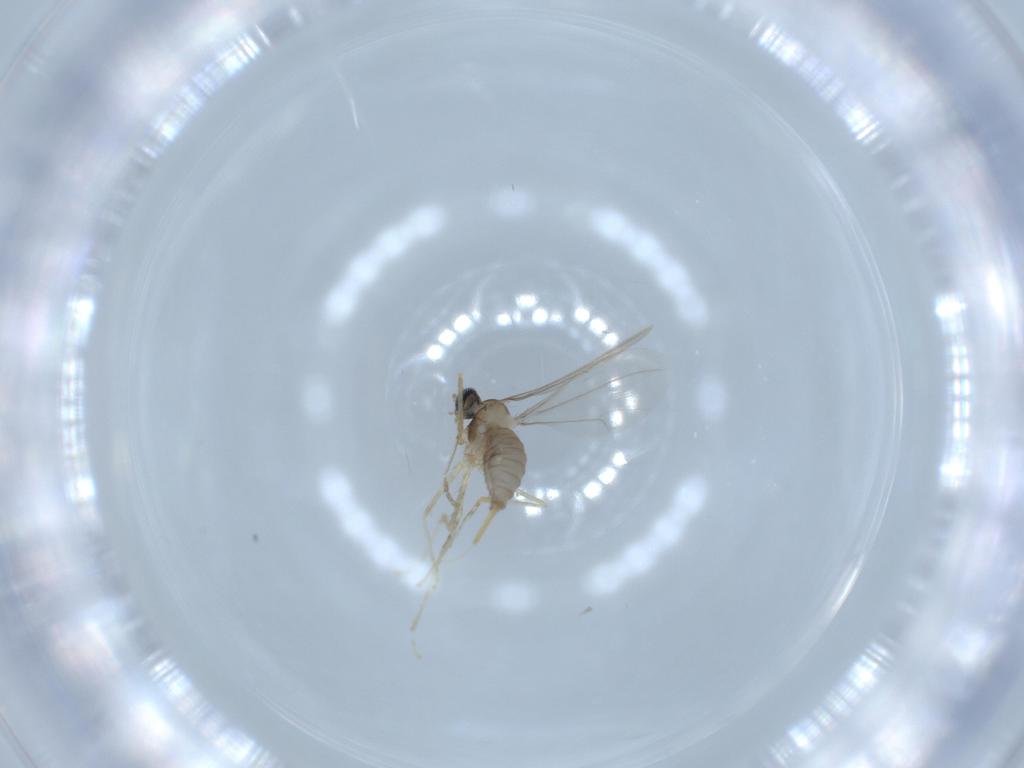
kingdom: Animalia
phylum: Arthropoda
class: Insecta
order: Diptera
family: Cecidomyiidae
